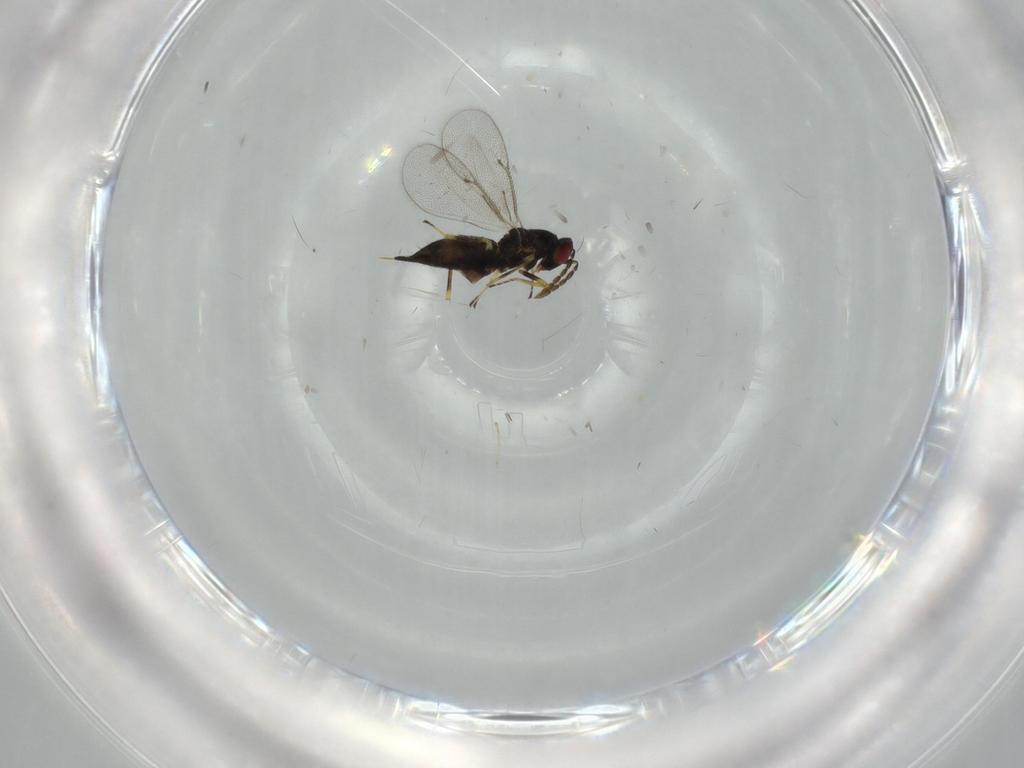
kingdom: Animalia
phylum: Arthropoda
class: Insecta
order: Hymenoptera
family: Eulophidae
